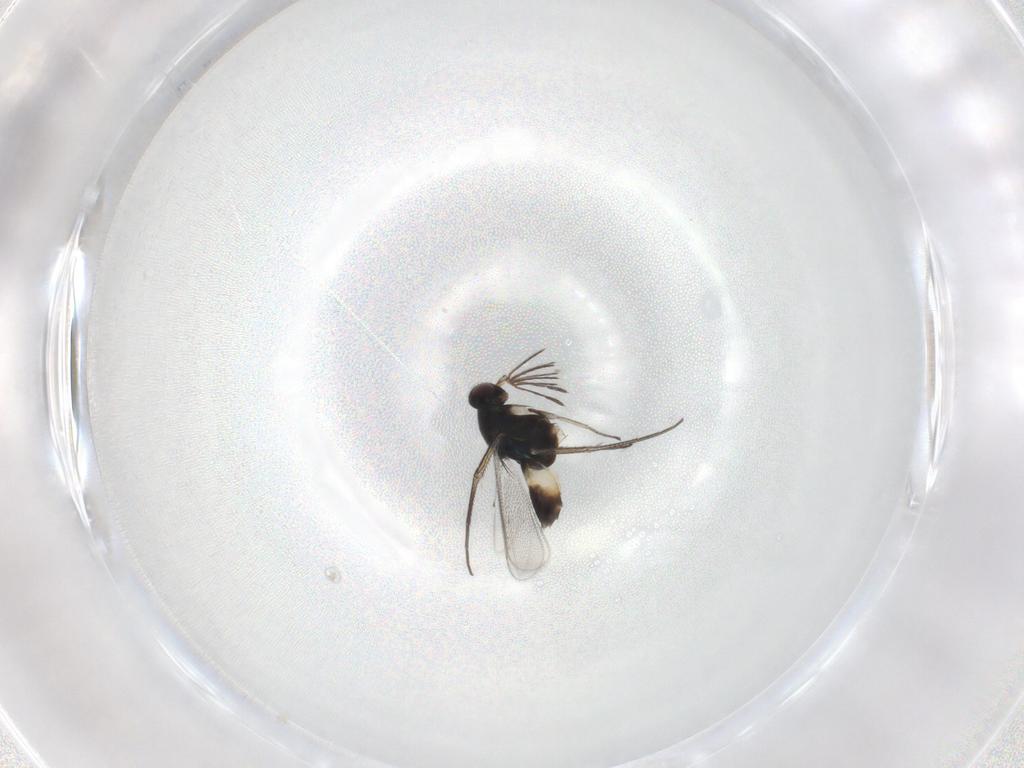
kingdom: Animalia
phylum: Arthropoda
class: Insecta
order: Hymenoptera
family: Eulophidae
